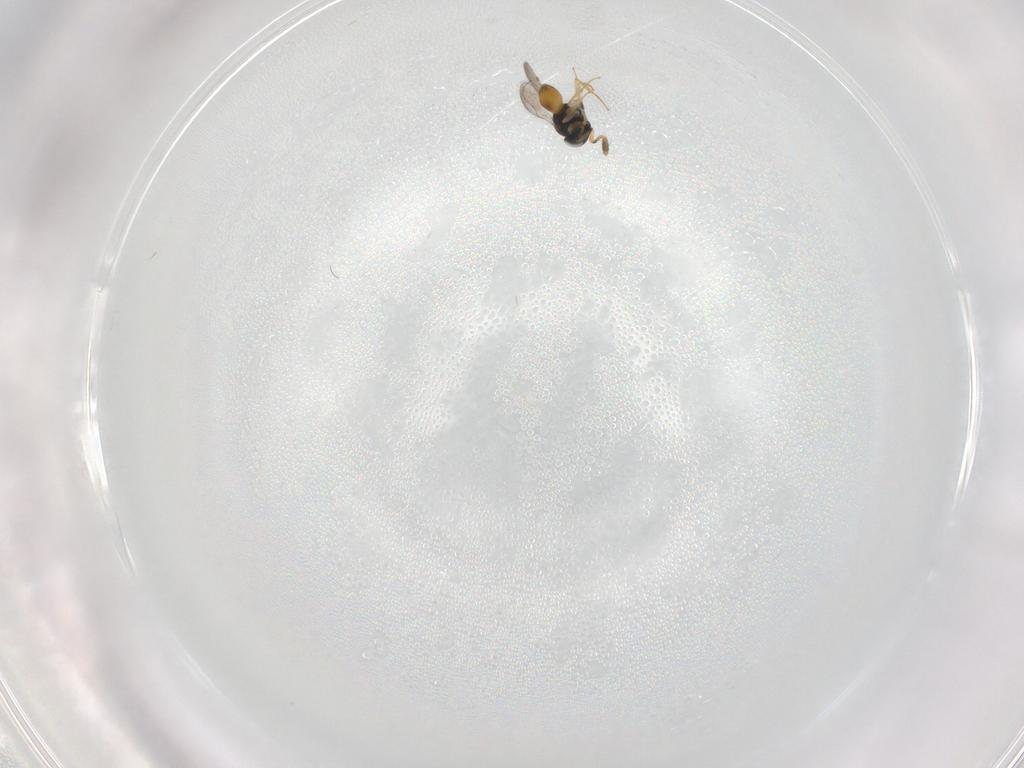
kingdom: Animalia
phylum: Arthropoda
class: Insecta
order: Hymenoptera
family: Scelionidae
